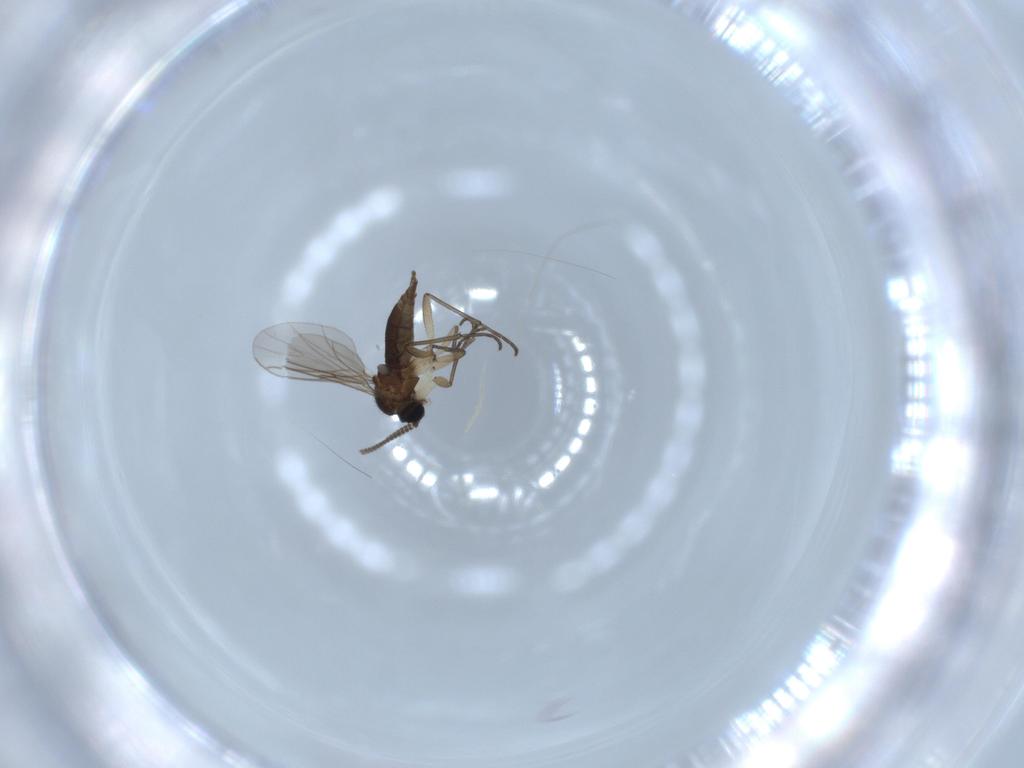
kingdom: Animalia
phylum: Arthropoda
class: Insecta
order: Diptera
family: Sciaridae
